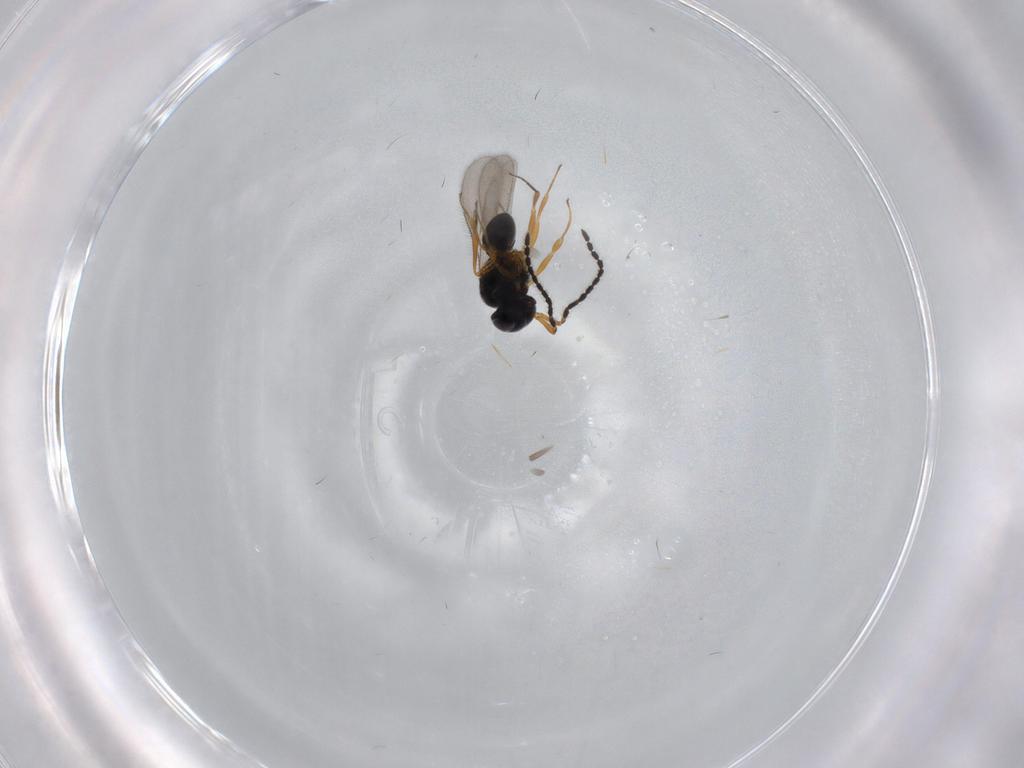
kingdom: Animalia
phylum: Arthropoda
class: Insecta
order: Hymenoptera
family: Scelionidae
